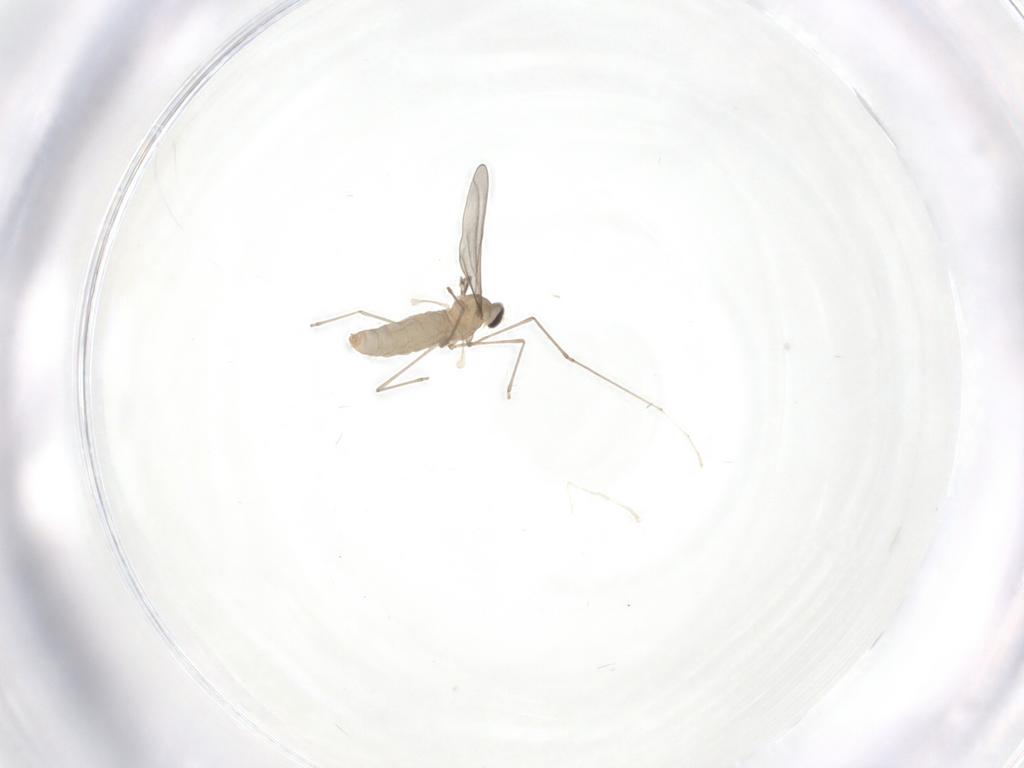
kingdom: Animalia
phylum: Arthropoda
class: Insecta
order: Diptera
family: Cecidomyiidae
